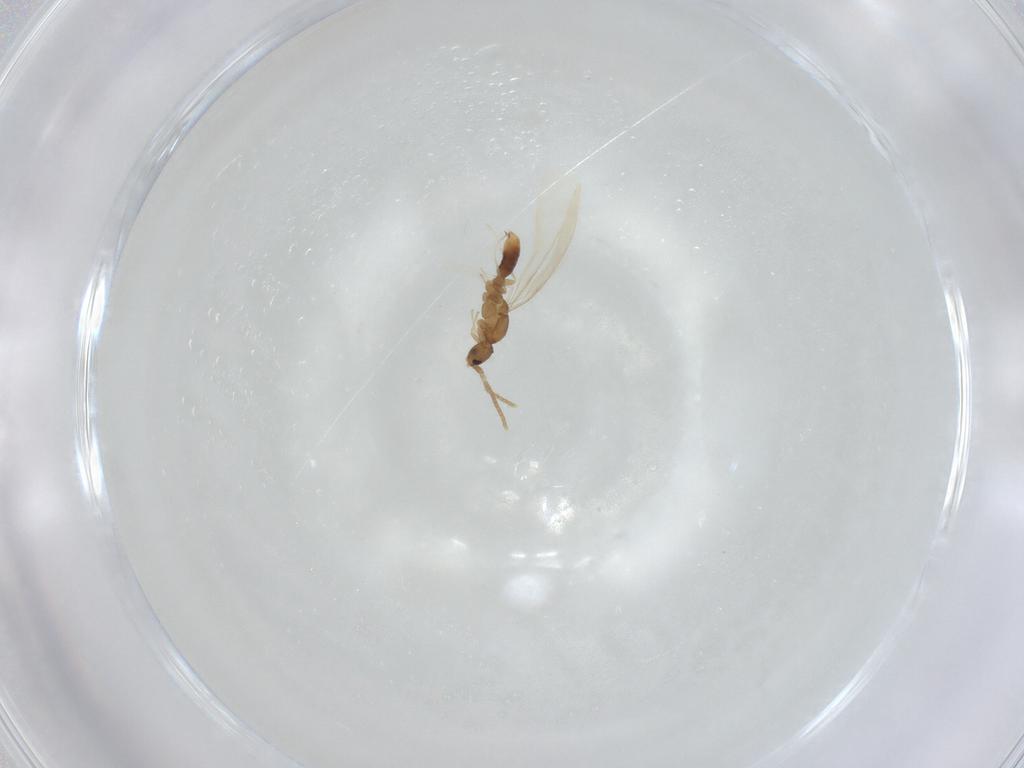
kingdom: Animalia
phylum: Arthropoda
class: Insecta
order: Hymenoptera
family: Formicidae
